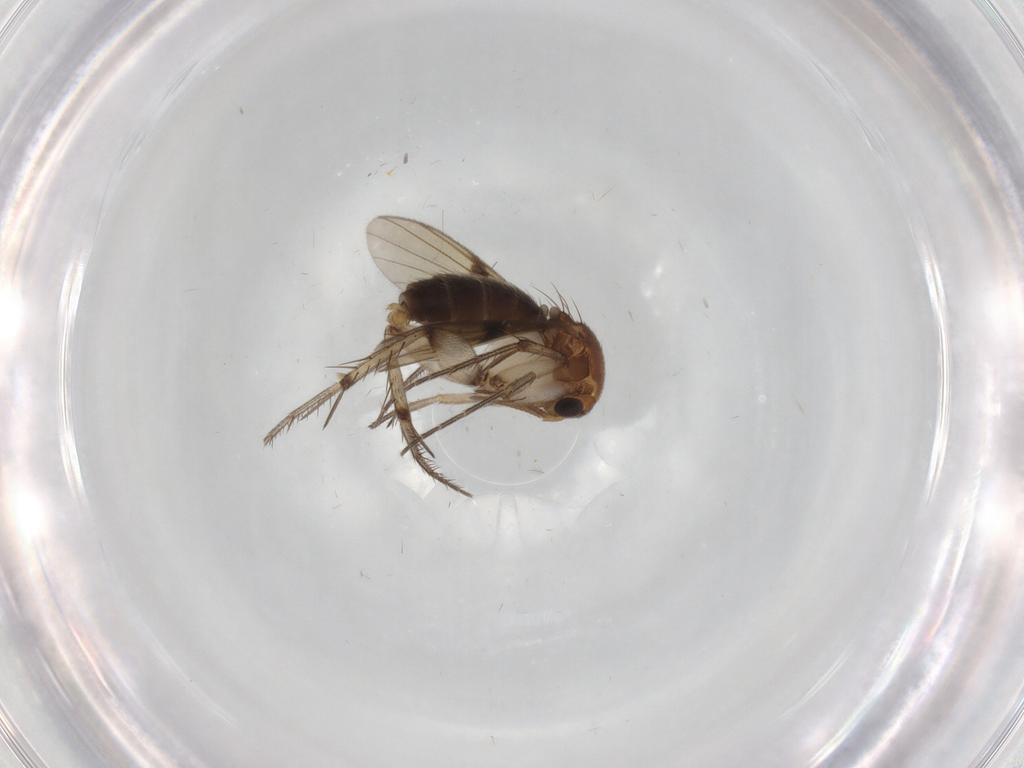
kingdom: Animalia
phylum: Arthropoda
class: Insecta
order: Diptera
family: Mycetophilidae
